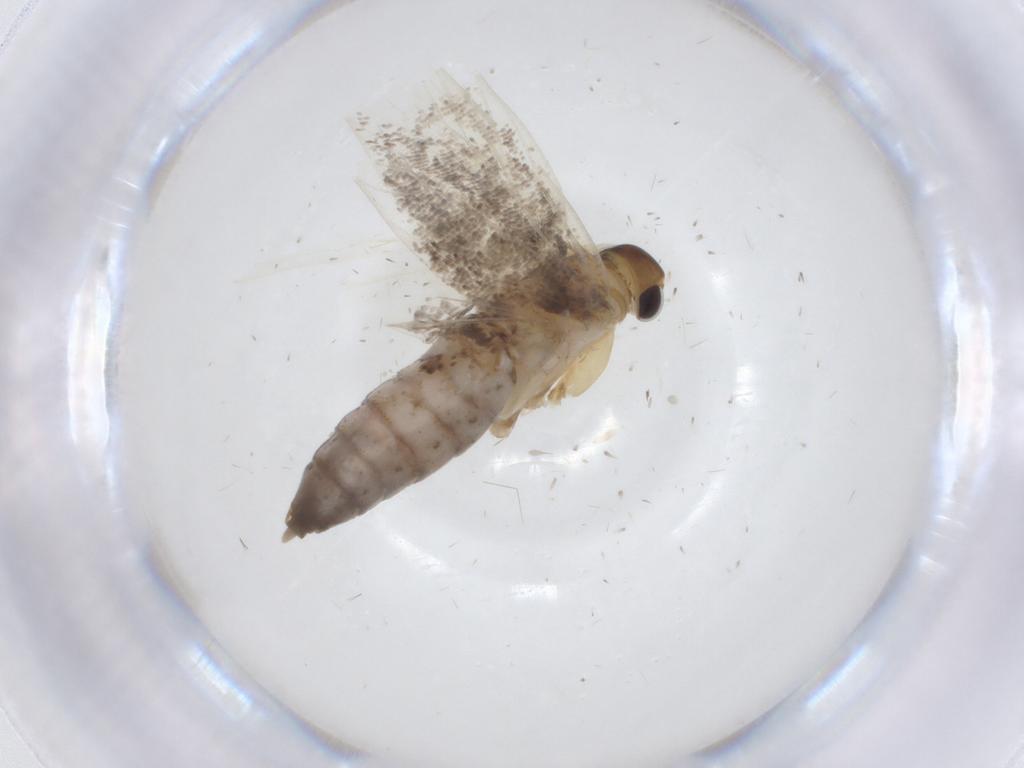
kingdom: Animalia
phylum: Arthropoda
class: Insecta
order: Lepidoptera
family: Lecithoceridae
